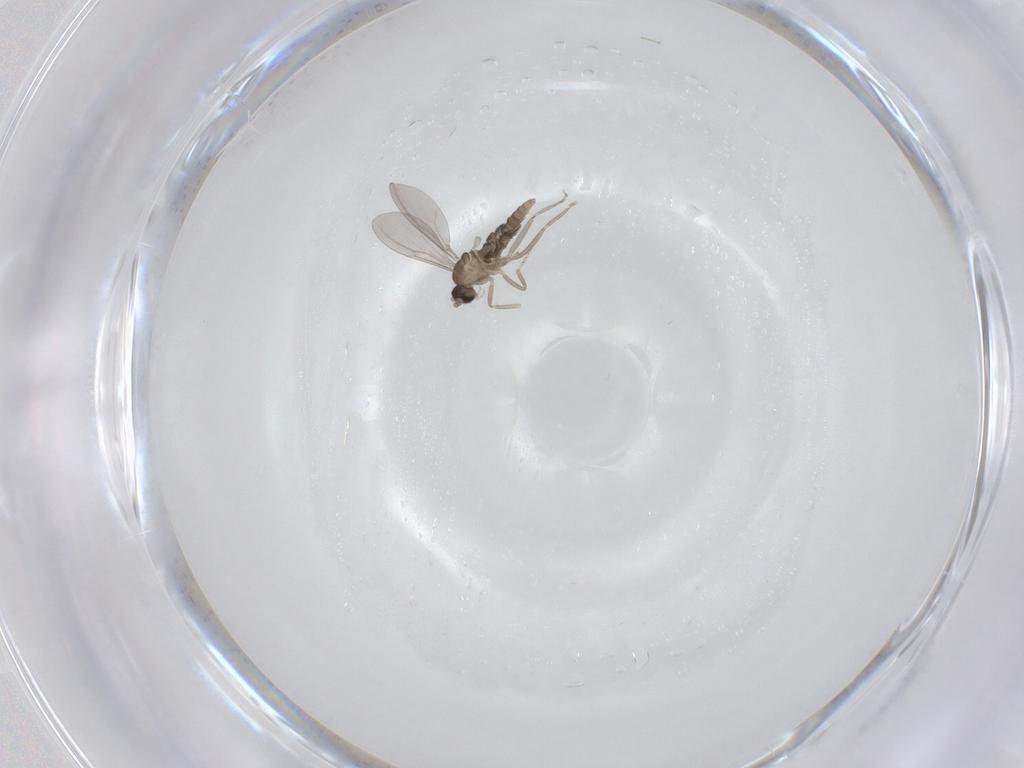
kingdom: Animalia
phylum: Arthropoda
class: Insecta
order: Diptera
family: Cecidomyiidae
